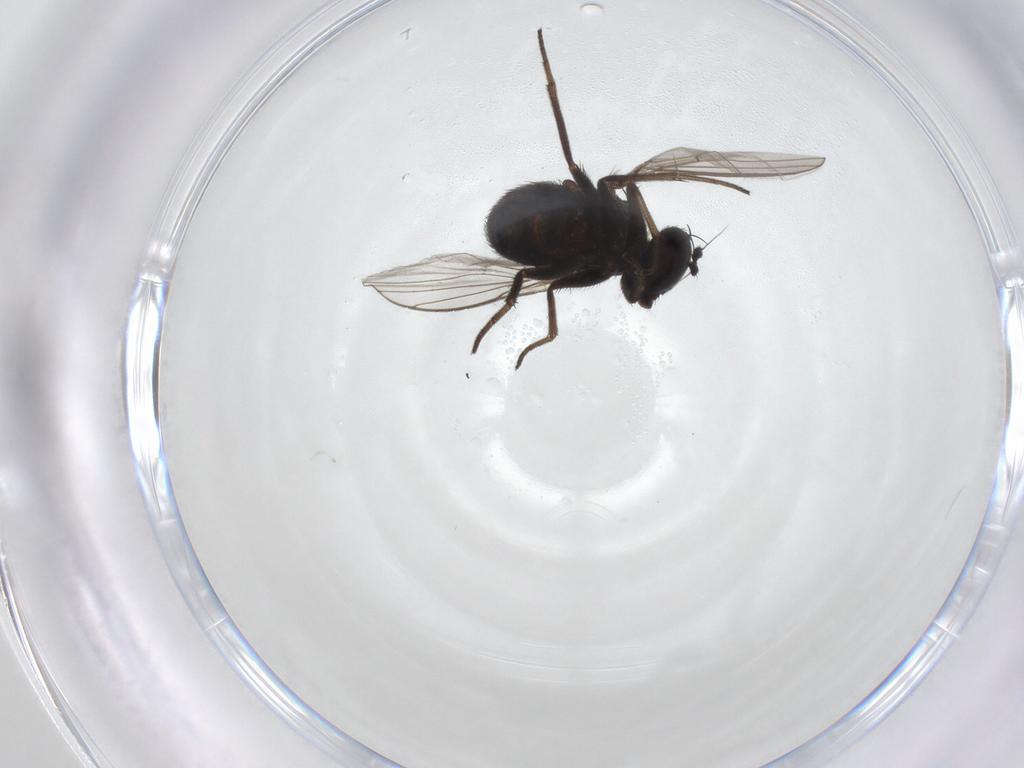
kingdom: Animalia
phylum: Arthropoda
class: Insecta
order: Diptera
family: Dolichopodidae
